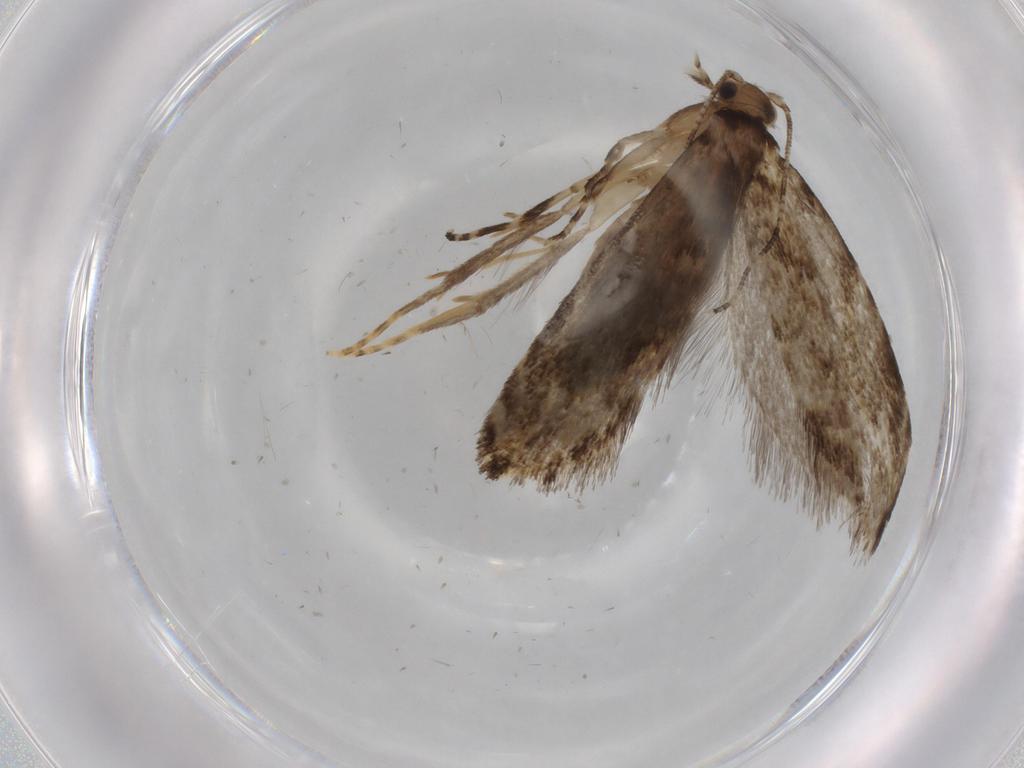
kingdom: Animalia
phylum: Arthropoda
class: Insecta
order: Lepidoptera
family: Tineidae
